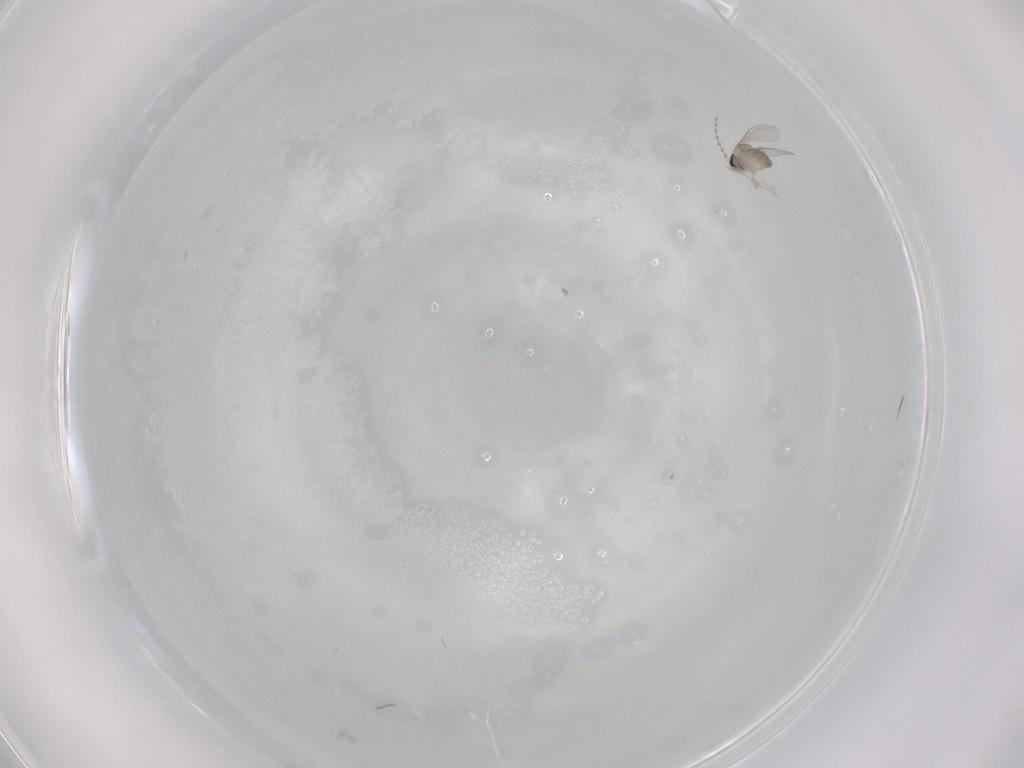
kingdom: Animalia
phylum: Arthropoda
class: Insecta
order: Diptera
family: Cecidomyiidae
